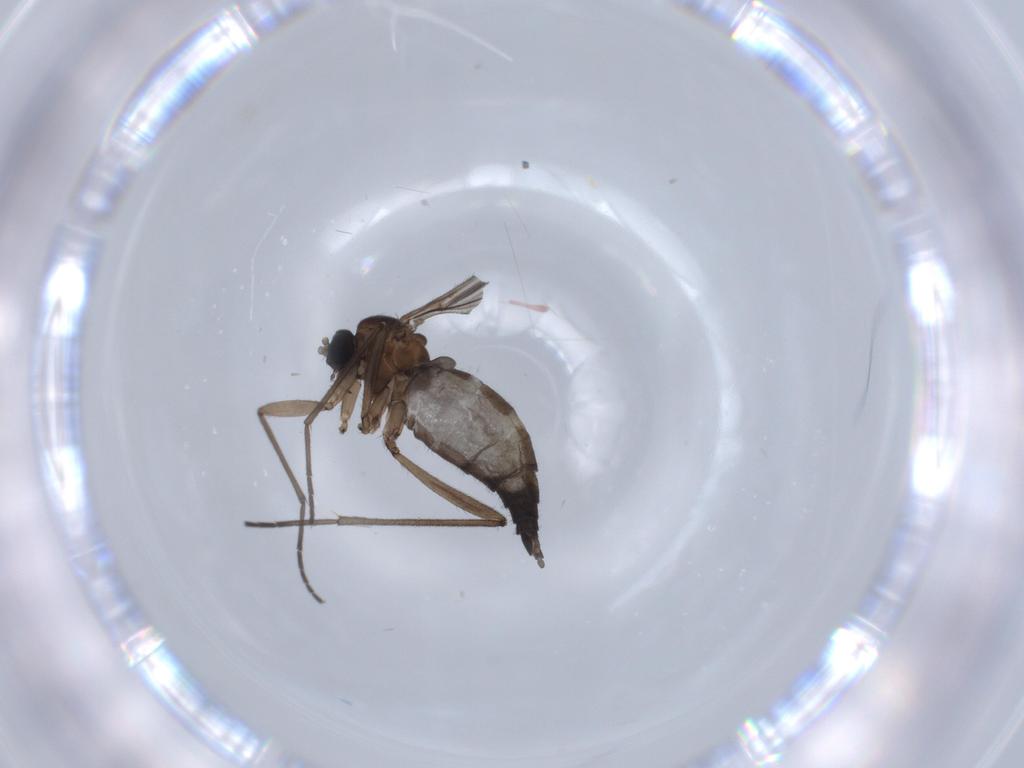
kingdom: Animalia
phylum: Arthropoda
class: Insecta
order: Diptera
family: Sciaridae
